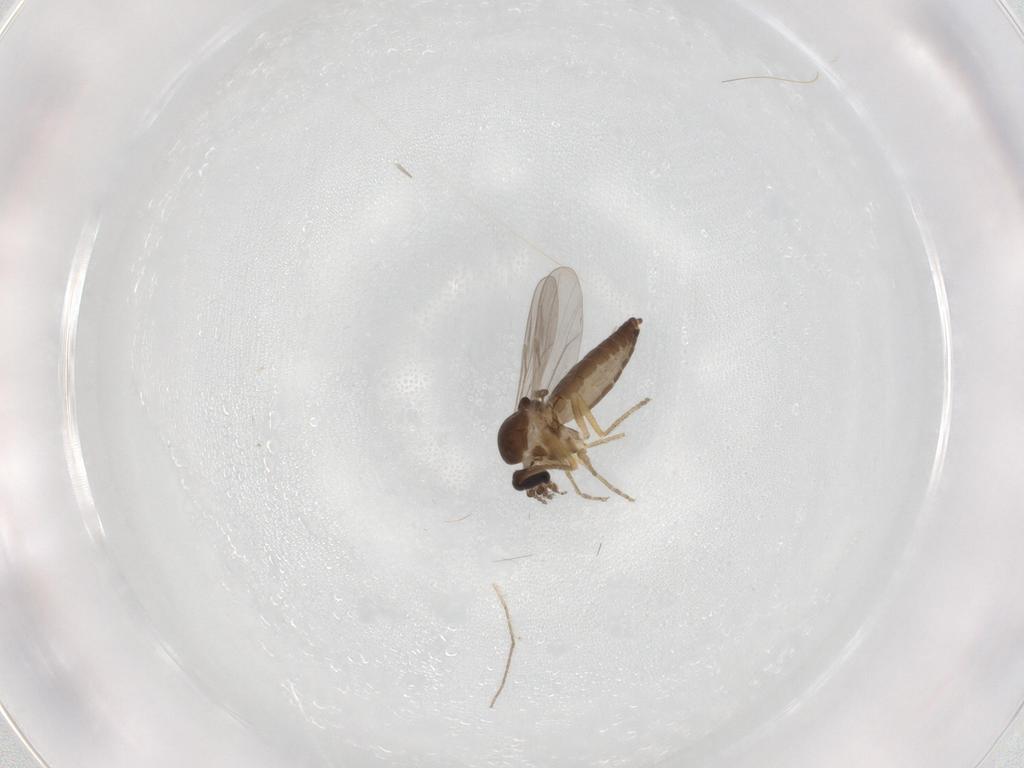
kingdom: Animalia
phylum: Arthropoda
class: Insecta
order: Diptera
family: Ceratopogonidae
